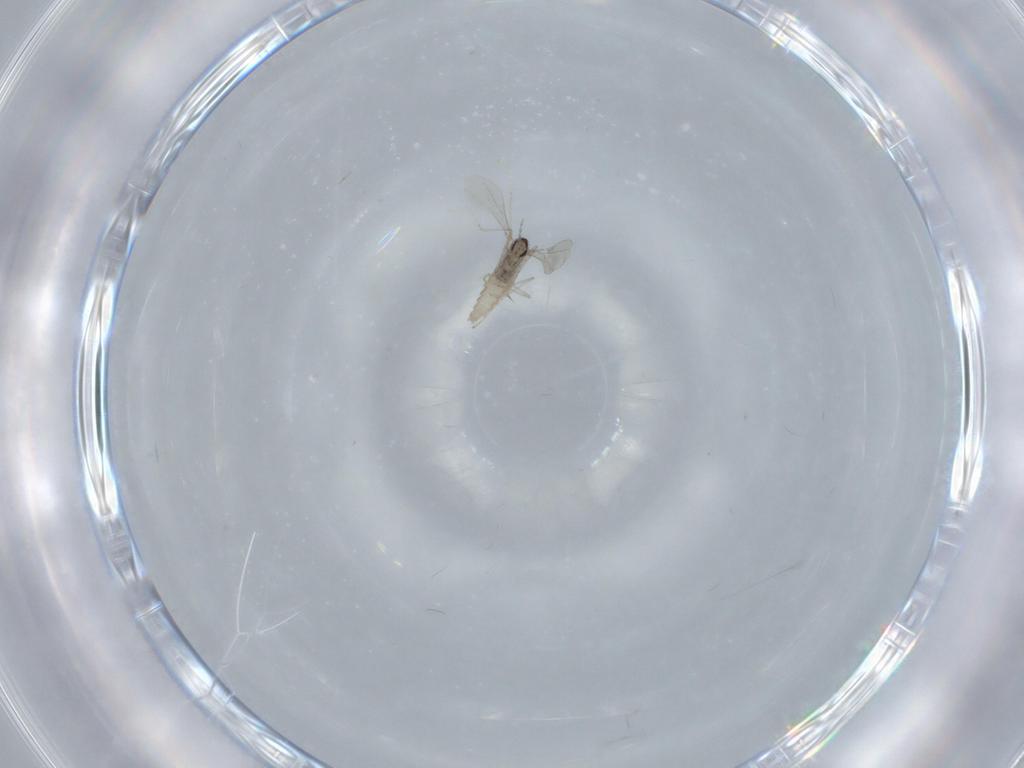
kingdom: Animalia
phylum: Arthropoda
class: Insecta
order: Diptera
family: Cecidomyiidae
